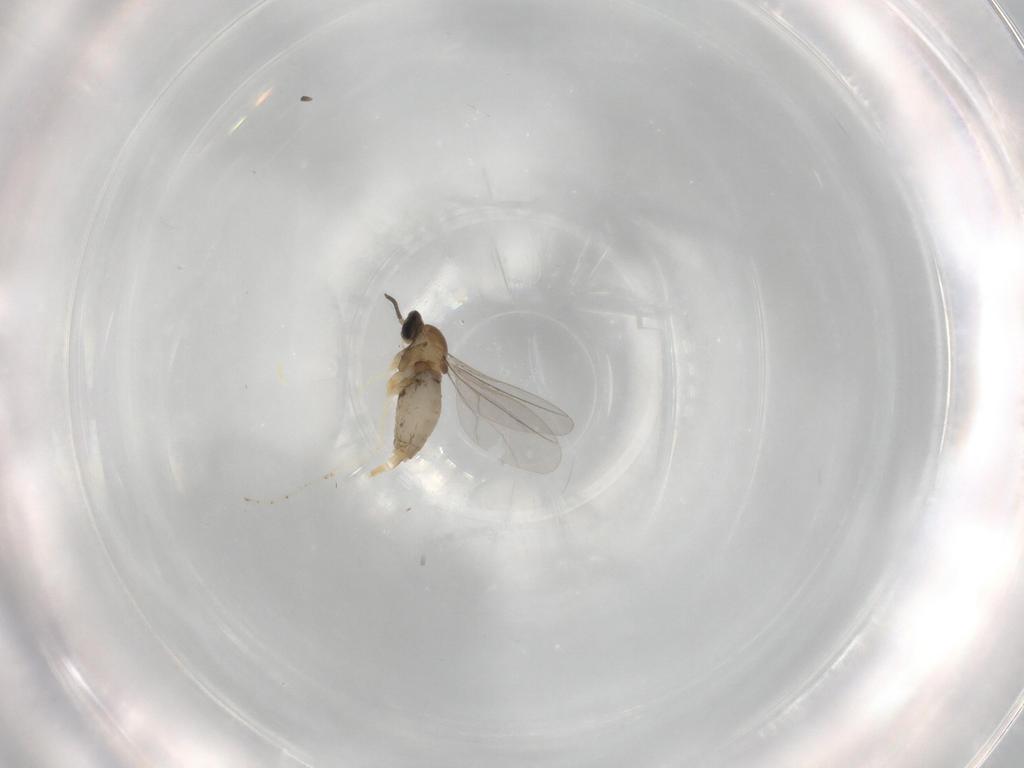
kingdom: Animalia
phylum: Arthropoda
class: Insecta
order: Diptera
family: Cecidomyiidae
